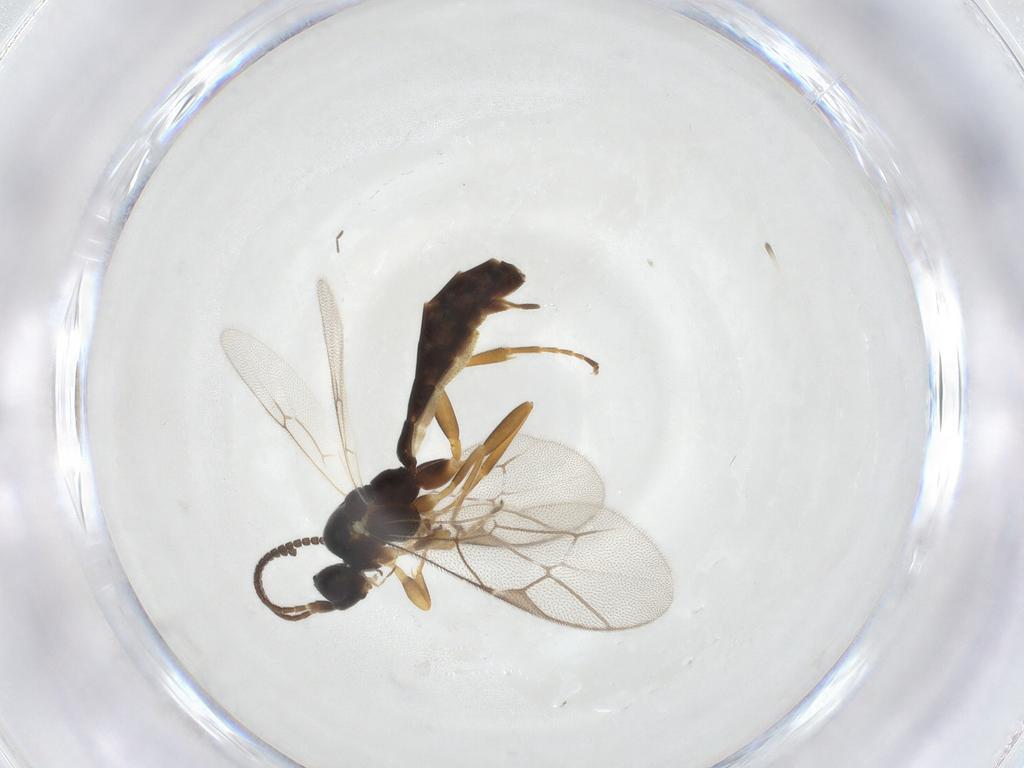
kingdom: Animalia
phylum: Arthropoda
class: Insecta
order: Hymenoptera
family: Ichneumonidae
